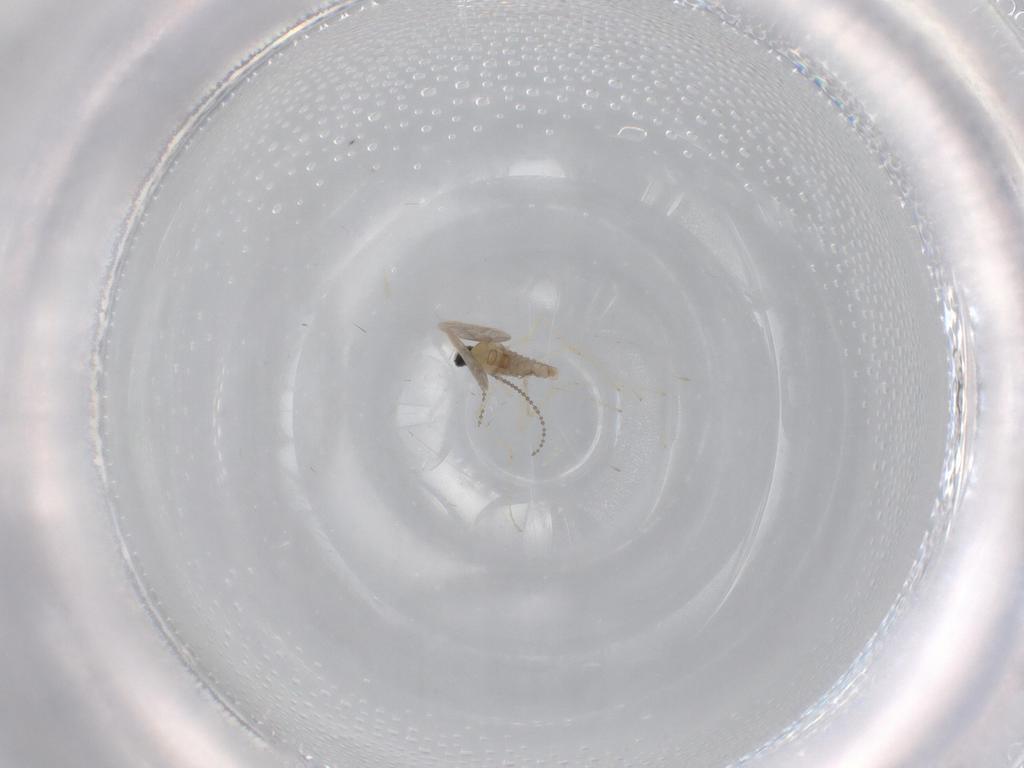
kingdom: Animalia
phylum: Arthropoda
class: Insecta
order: Diptera
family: Cecidomyiidae
